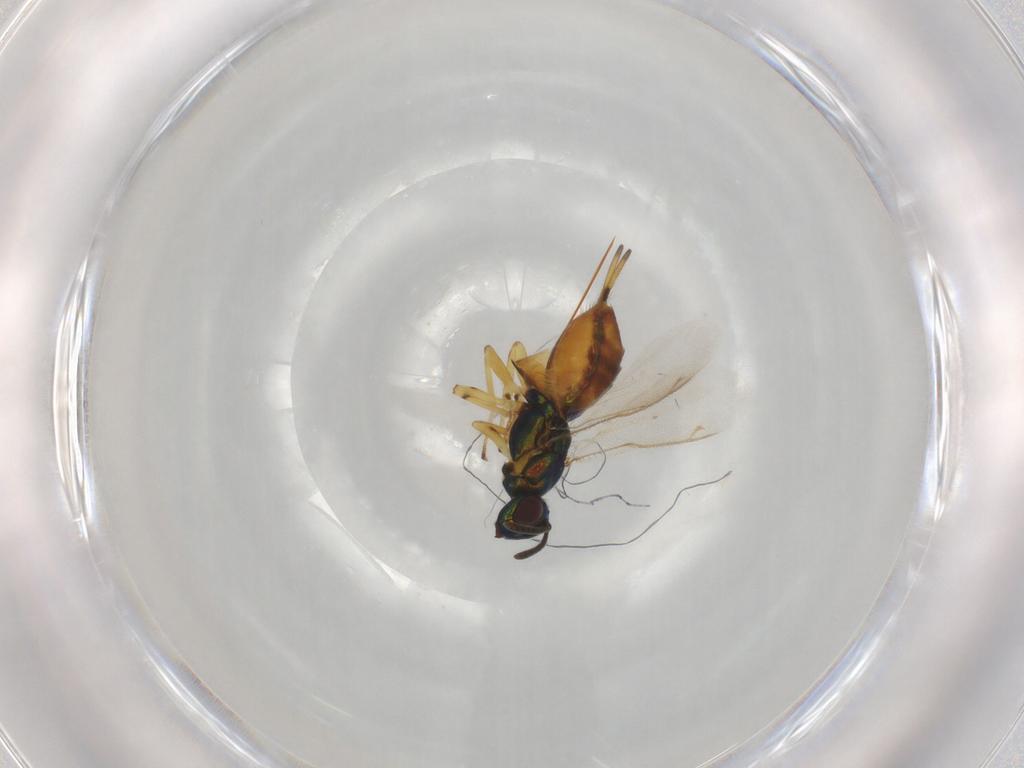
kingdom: Animalia
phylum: Arthropoda
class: Insecta
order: Hymenoptera
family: Eupelmidae
